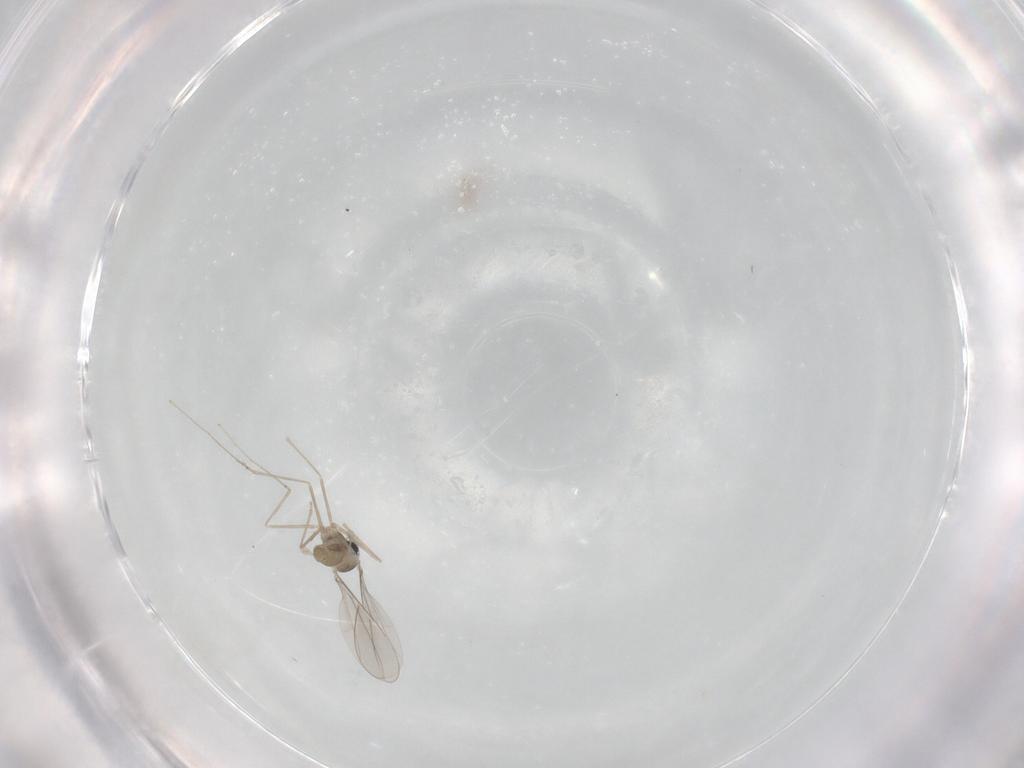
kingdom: Animalia
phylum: Arthropoda
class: Insecta
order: Diptera
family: Cecidomyiidae
